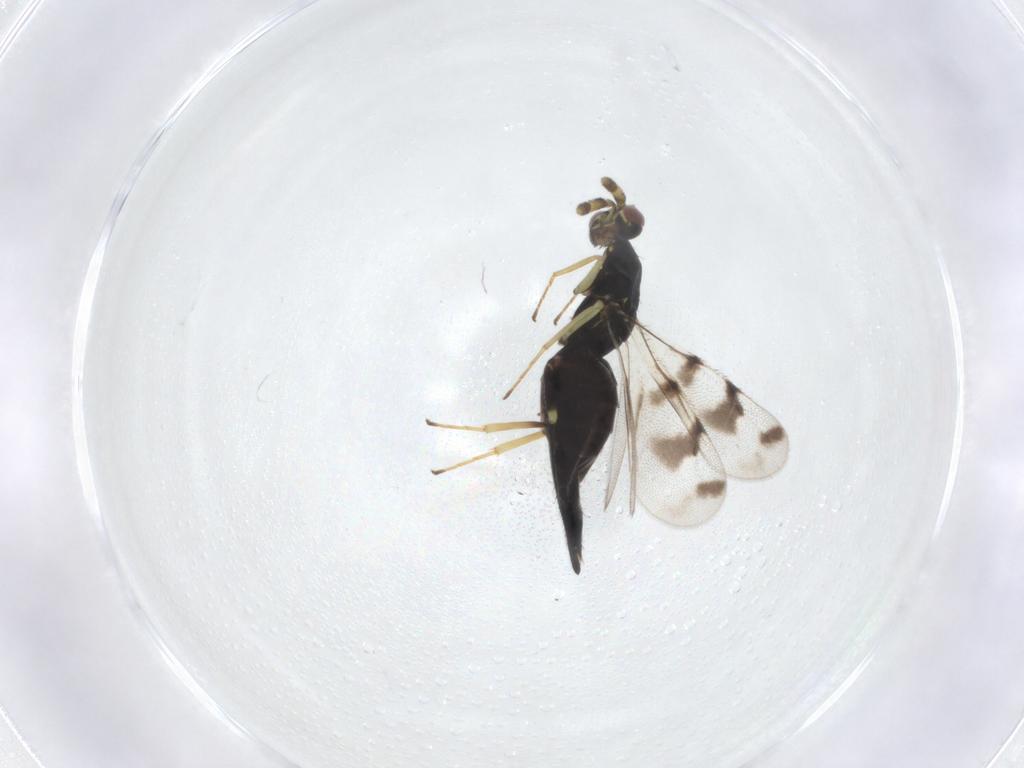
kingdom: Animalia
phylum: Arthropoda
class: Insecta
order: Hymenoptera
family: Eulophidae
